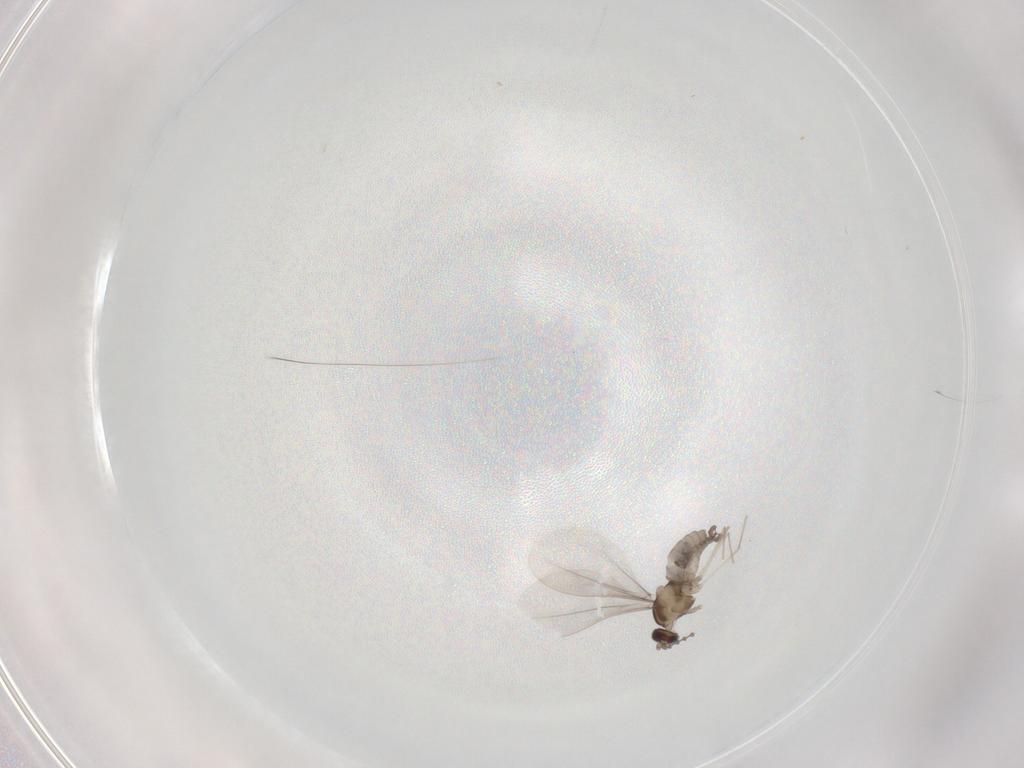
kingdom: Animalia
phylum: Arthropoda
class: Insecta
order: Diptera
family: Cecidomyiidae
